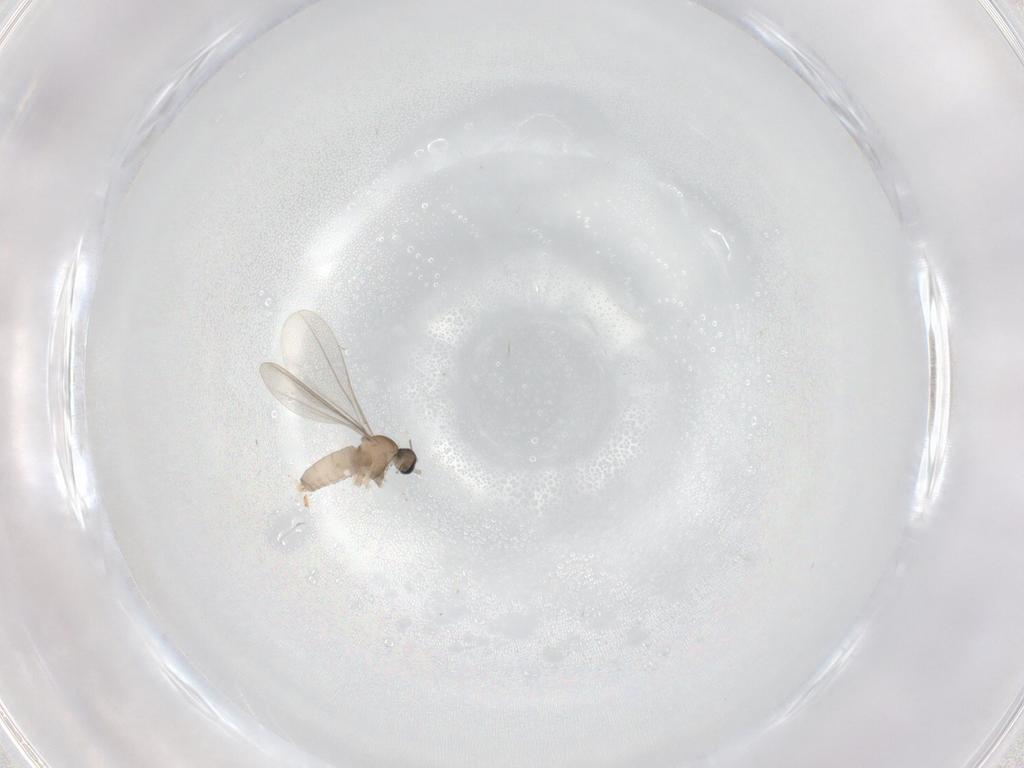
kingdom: Animalia
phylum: Arthropoda
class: Insecta
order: Diptera
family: Cecidomyiidae
